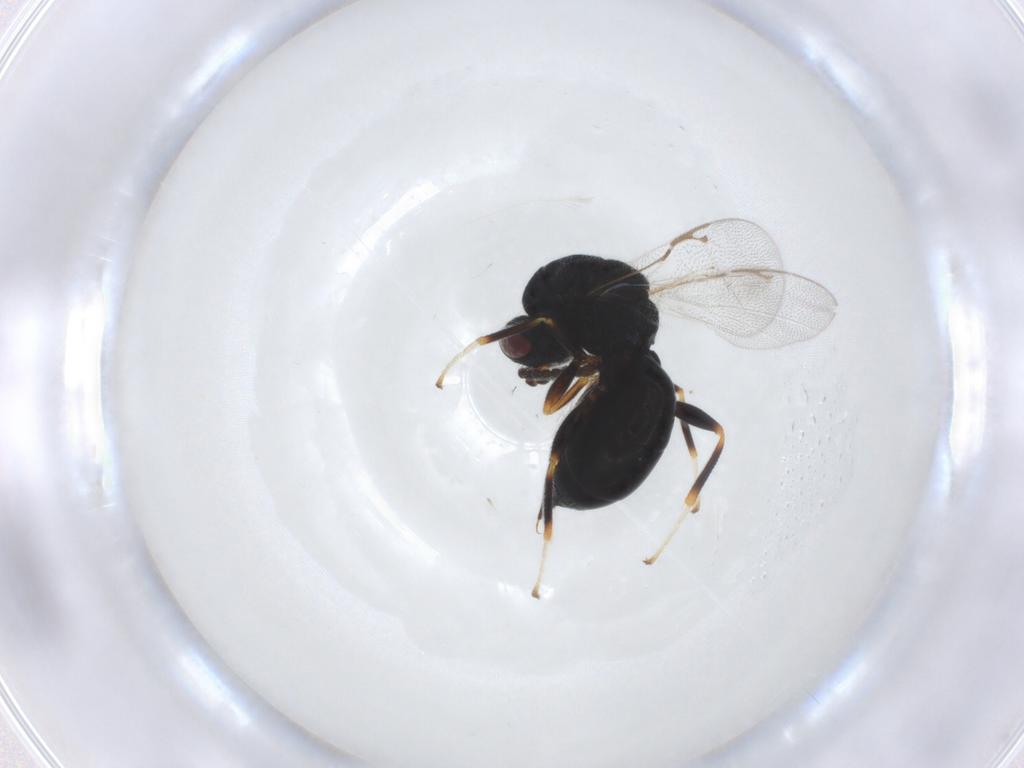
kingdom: Animalia
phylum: Arthropoda
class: Insecta
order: Hymenoptera
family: Eurytomidae
